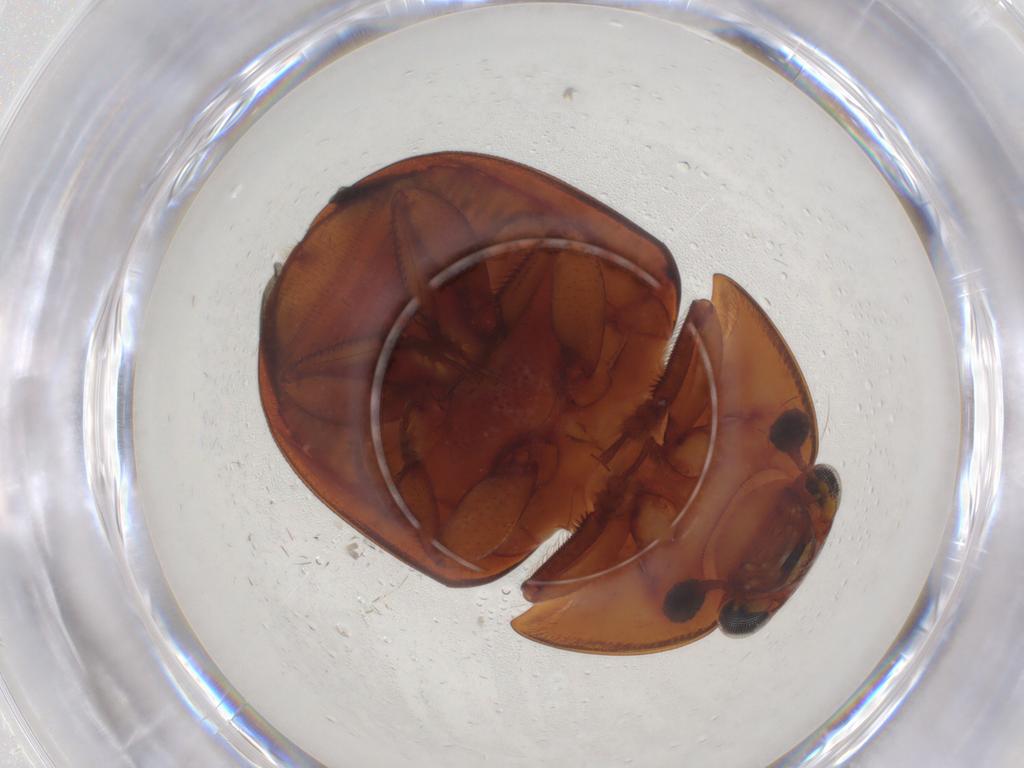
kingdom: Animalia
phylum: Arthropoda
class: Insecta
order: Coleoptera
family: Nitidulidae
